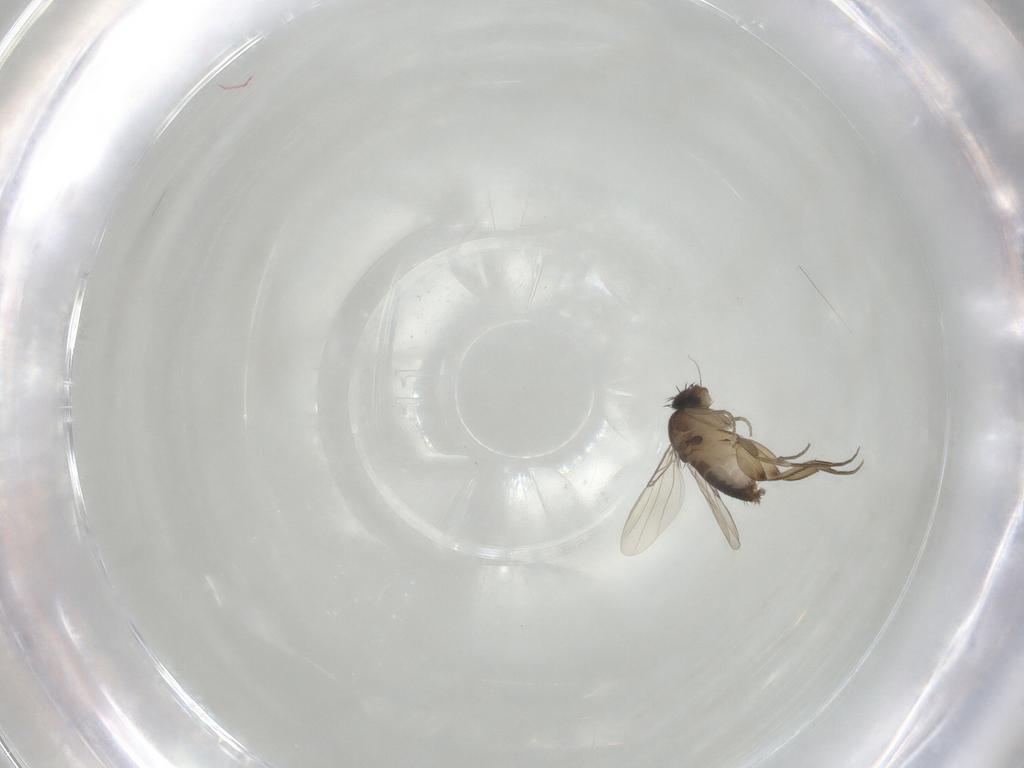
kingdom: Animalia
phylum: Arthropoda
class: Insecta
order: Diptera
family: Phoridae
